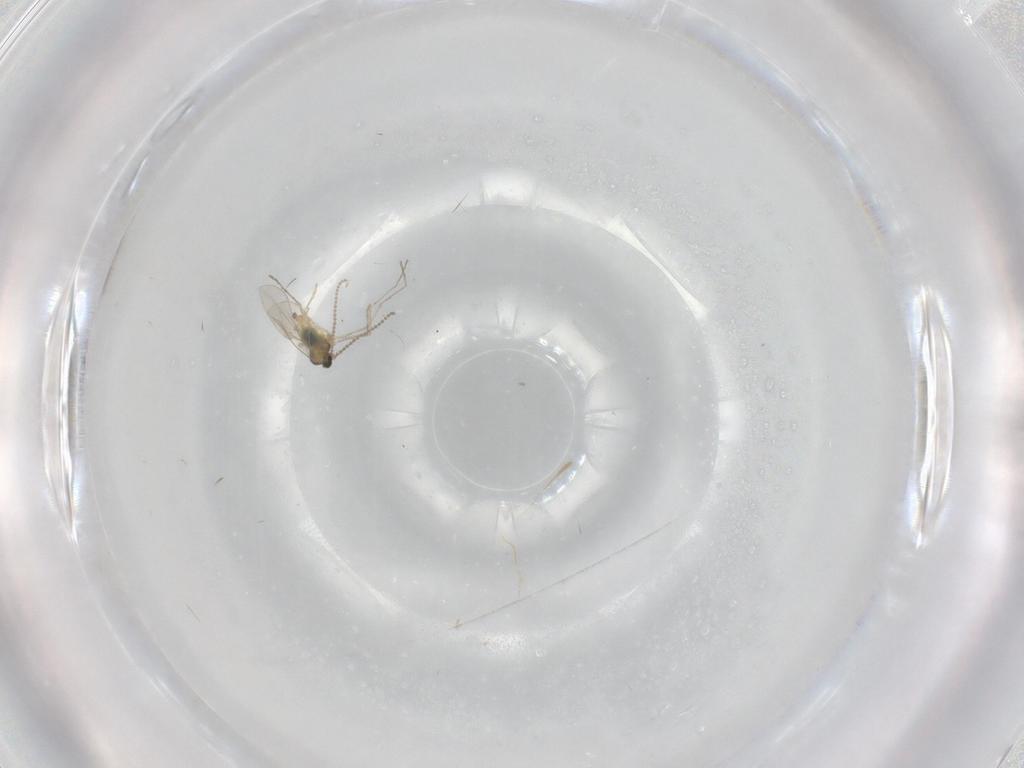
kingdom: Animalia
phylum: Arthropoda
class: Insecta
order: Diptera
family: Cecidomyiidae
